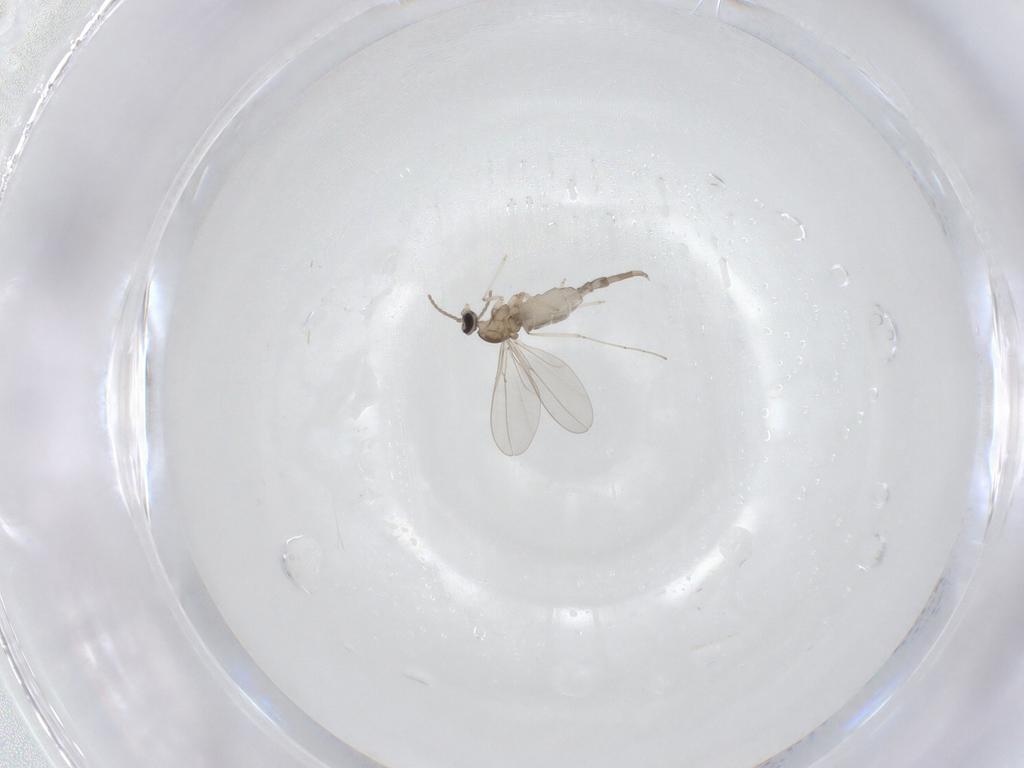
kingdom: Animalia
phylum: Arthropoda
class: Insecta
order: Diptera
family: Cecidomyiidae
